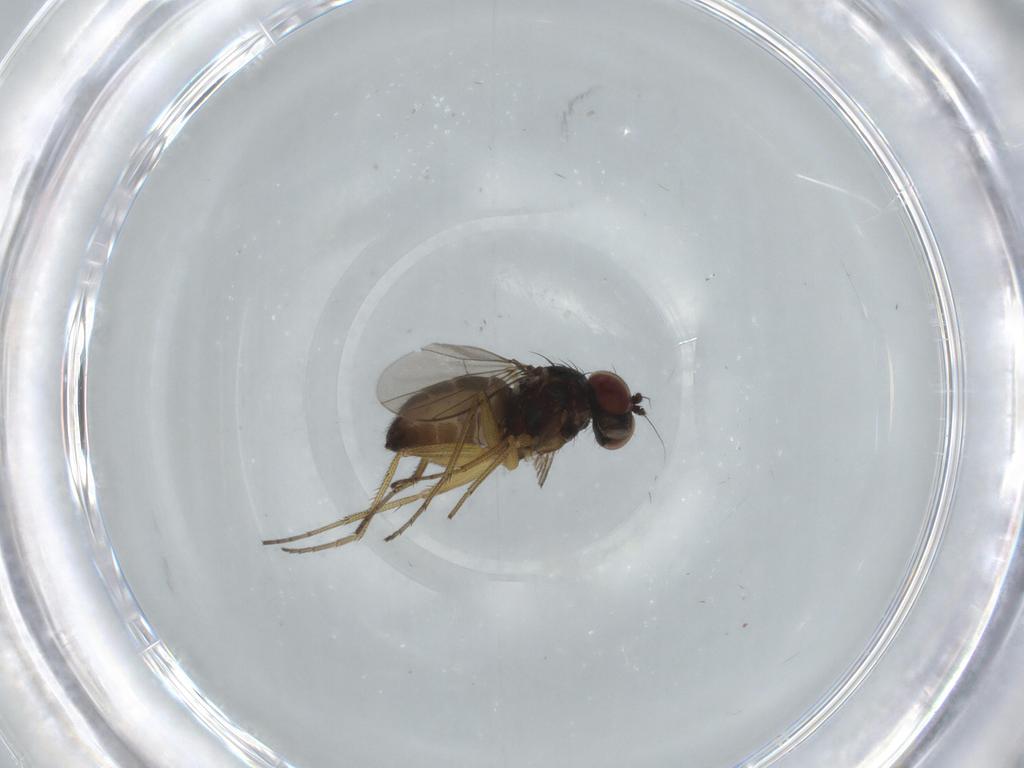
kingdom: Animalia
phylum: Arthropoda
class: Insecta
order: Diptera
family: Dolichopodidae
